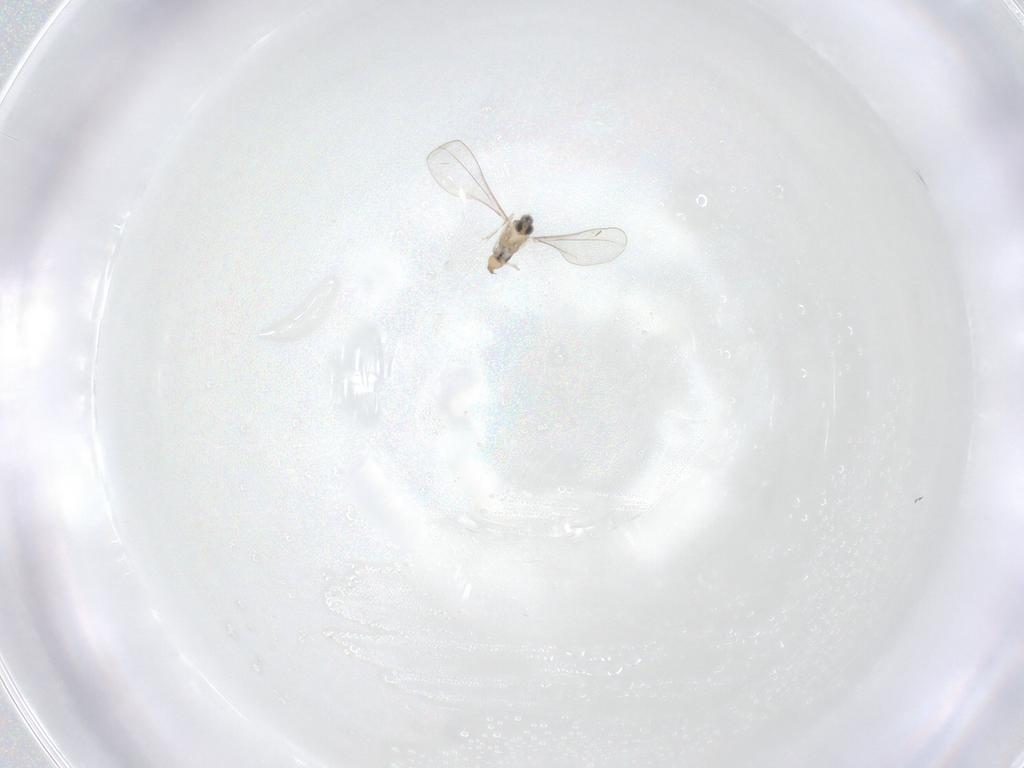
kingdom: Animalia
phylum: Arthropoda
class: Insecta
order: Diptera
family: Cecidomyiidae
